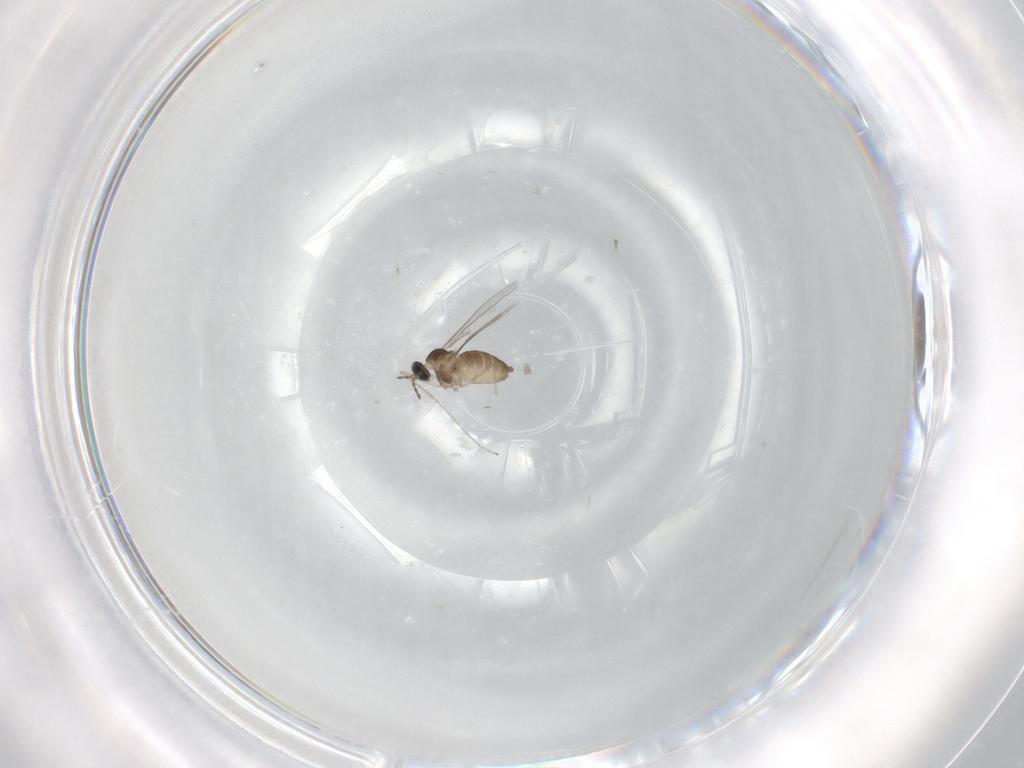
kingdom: Animalia
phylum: Arthropoda
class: Insecta
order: Diptera
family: Cecidomyiidae
